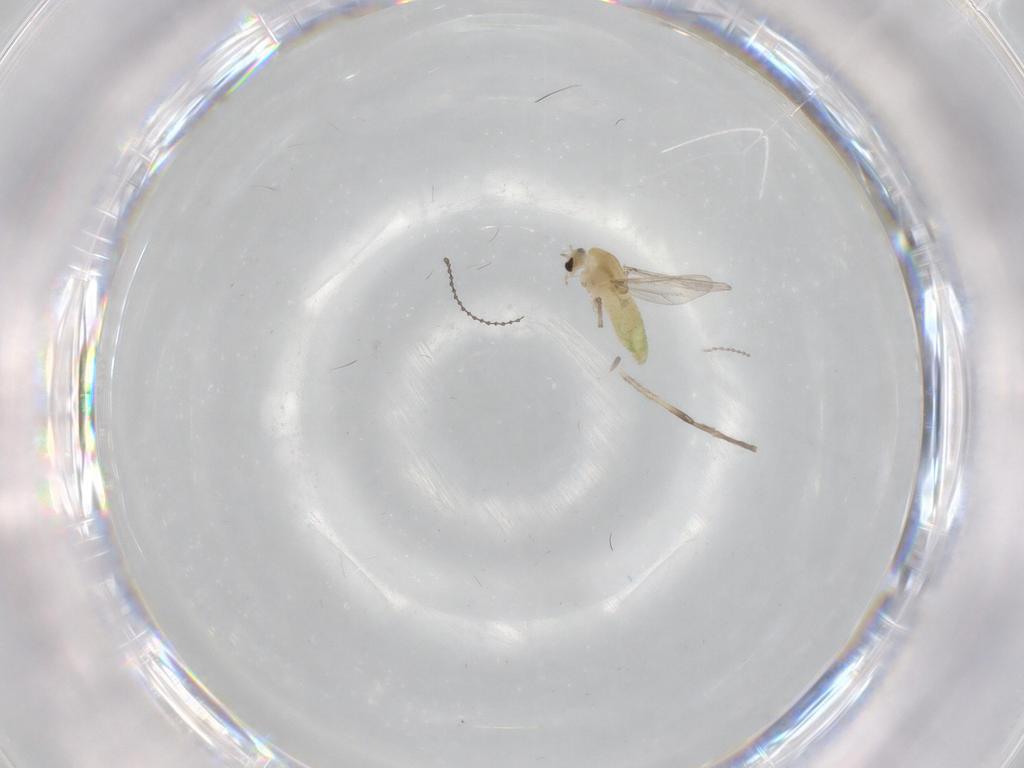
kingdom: Animalia
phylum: Arthropoda
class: Insecta
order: Diptera
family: Chironomidae
